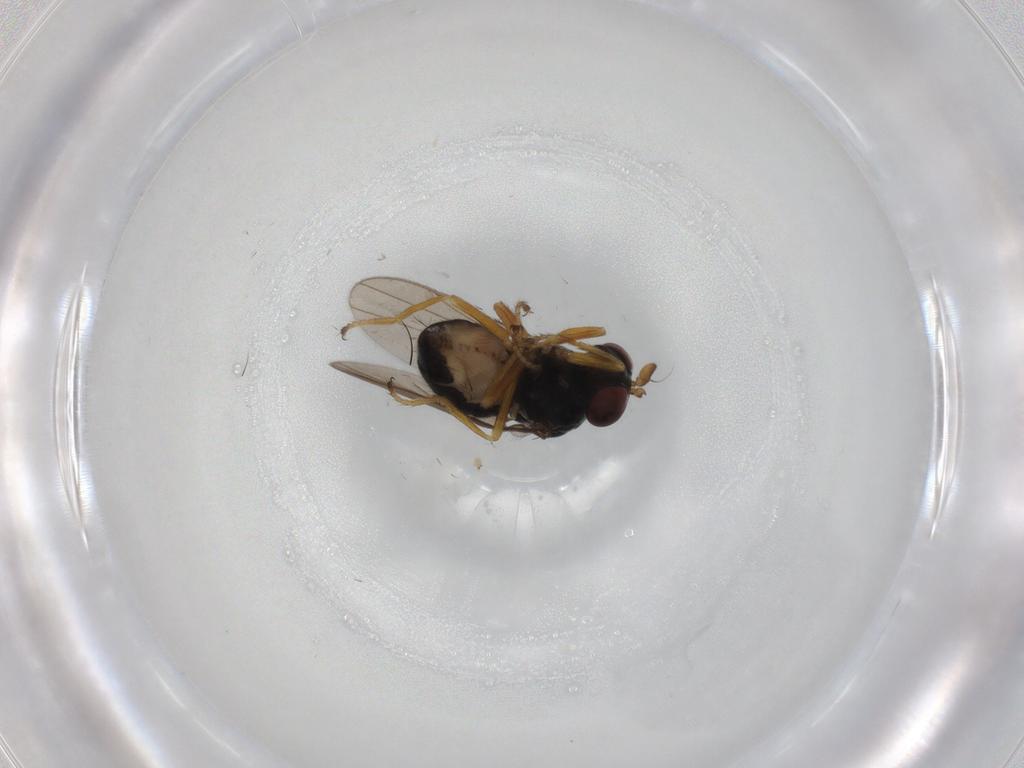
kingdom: Animalia
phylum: Arthropoda
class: Insecta
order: Diptera
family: Ephydridae
